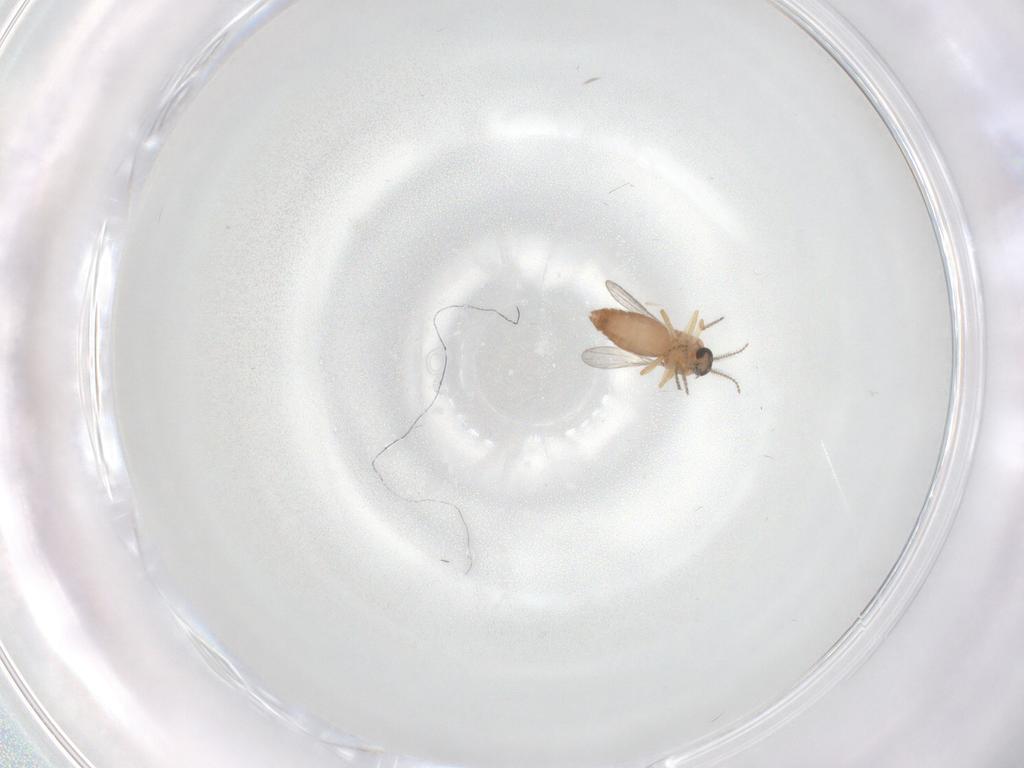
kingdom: Animalia
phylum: Arthropoda
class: Insecta
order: Diptera
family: Sciaridae
